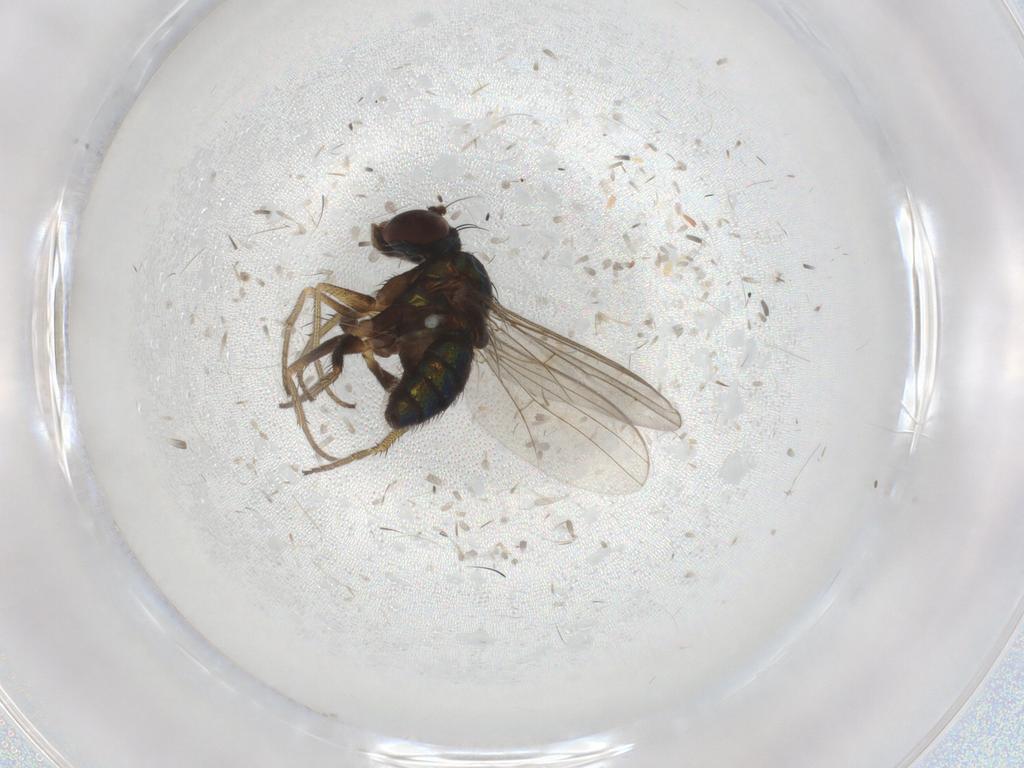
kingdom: Animalia
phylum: Arthropoda
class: Insecta
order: Diptera
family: Dolichopodidae
